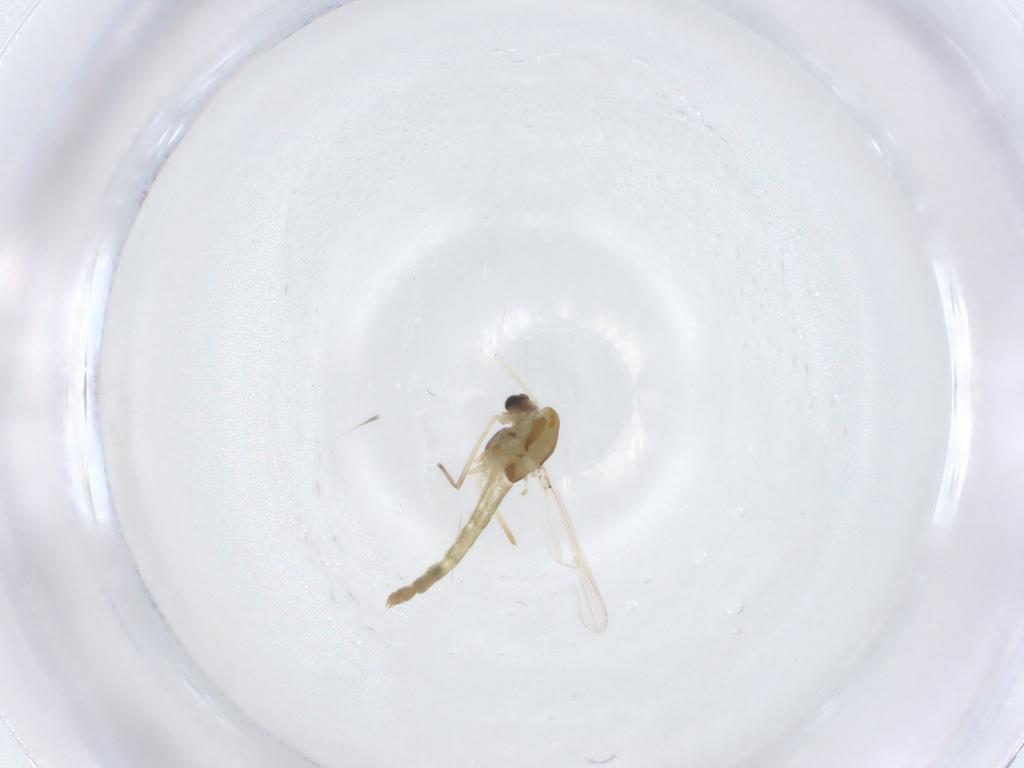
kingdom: Animalia
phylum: Arthropoda
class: Insecta
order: Diptera
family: Chironomidae
